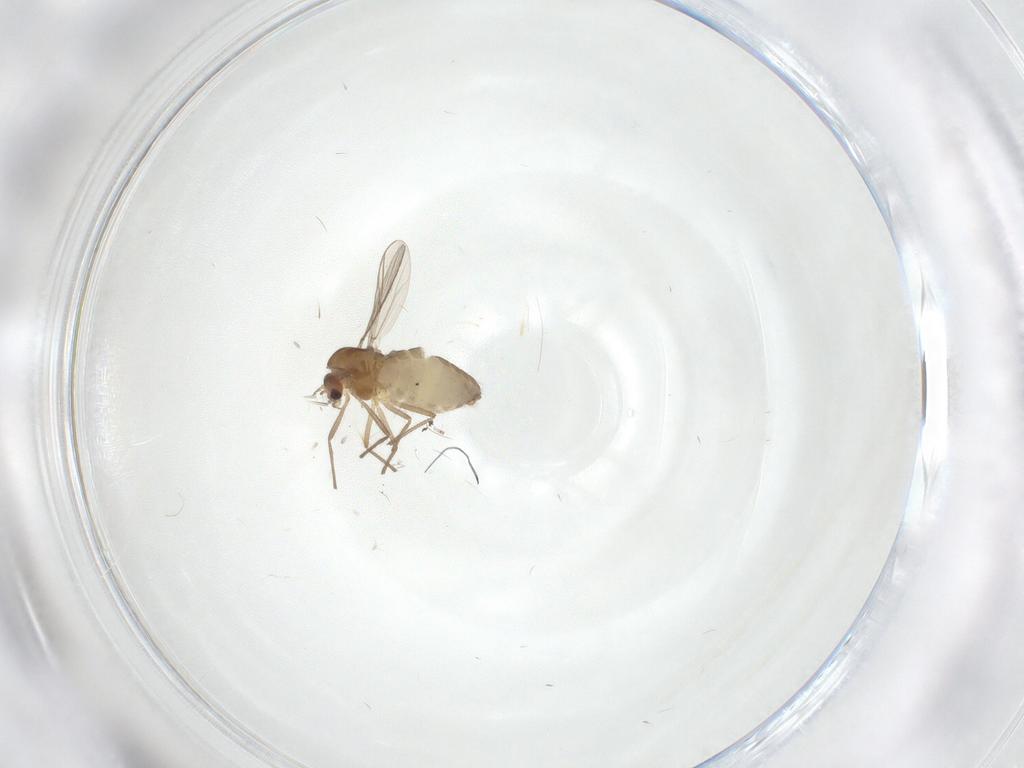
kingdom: Animalia
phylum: Arthropoda
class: Insecta
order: Diptera
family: Chironomidae
